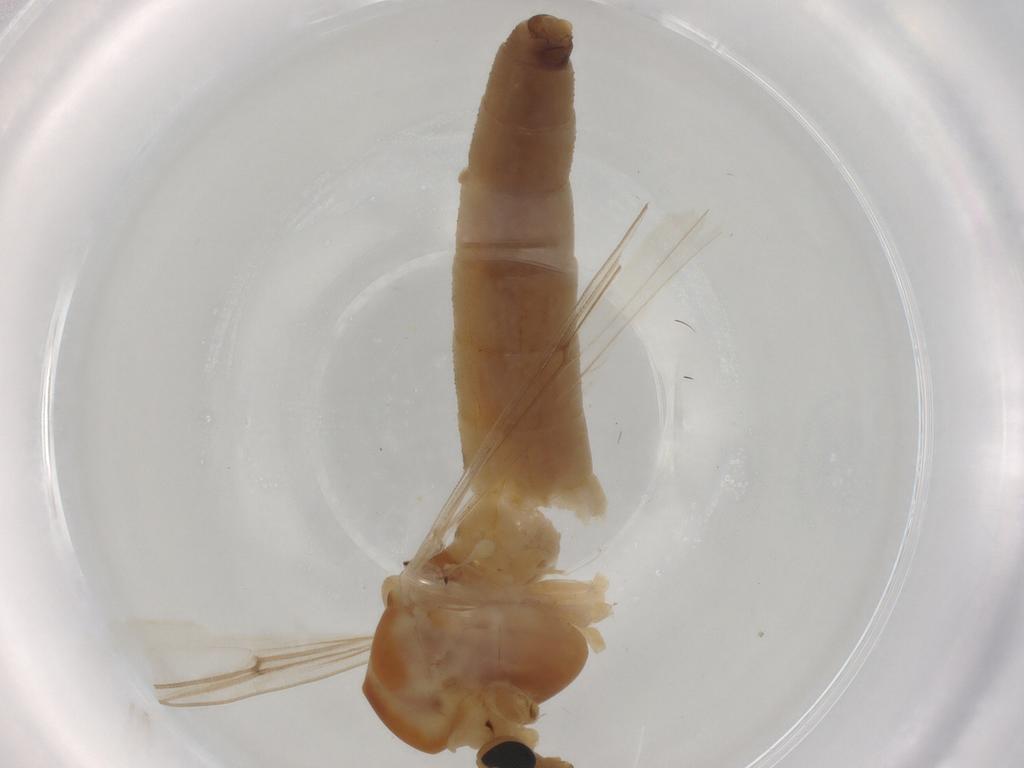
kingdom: Animalia
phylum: Arthropoda
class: Insecta
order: Diptera
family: Chironomidae
